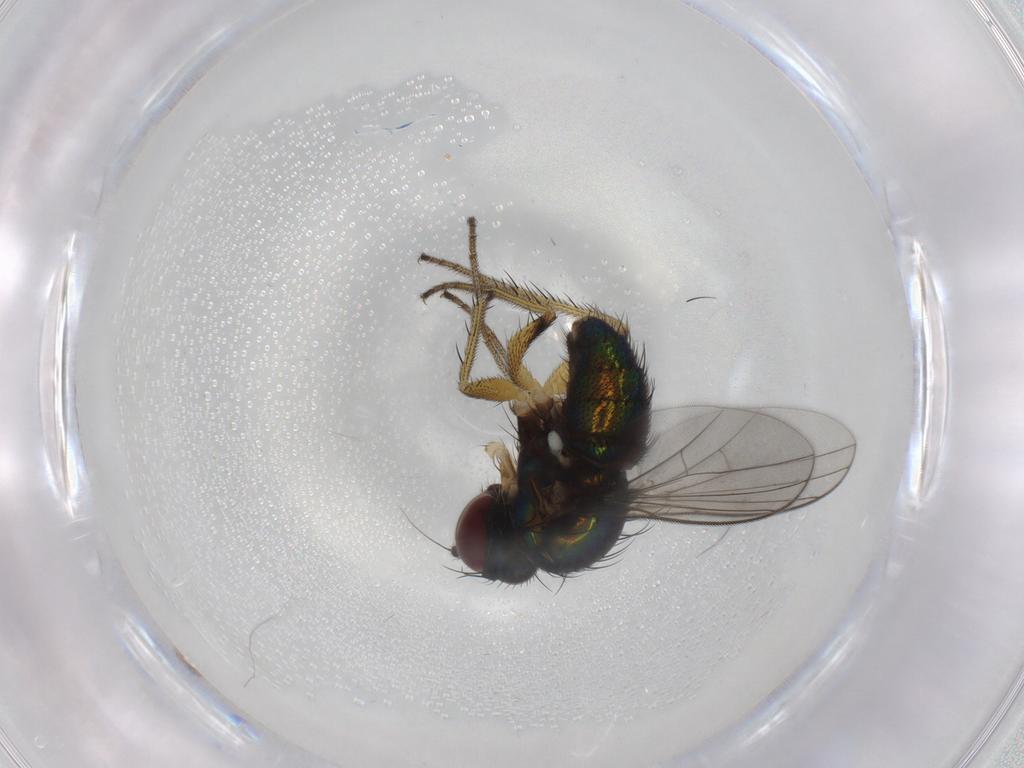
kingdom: Animalia
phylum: Arthropoda
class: Insecta
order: Diptera
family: Dolichopodidae
